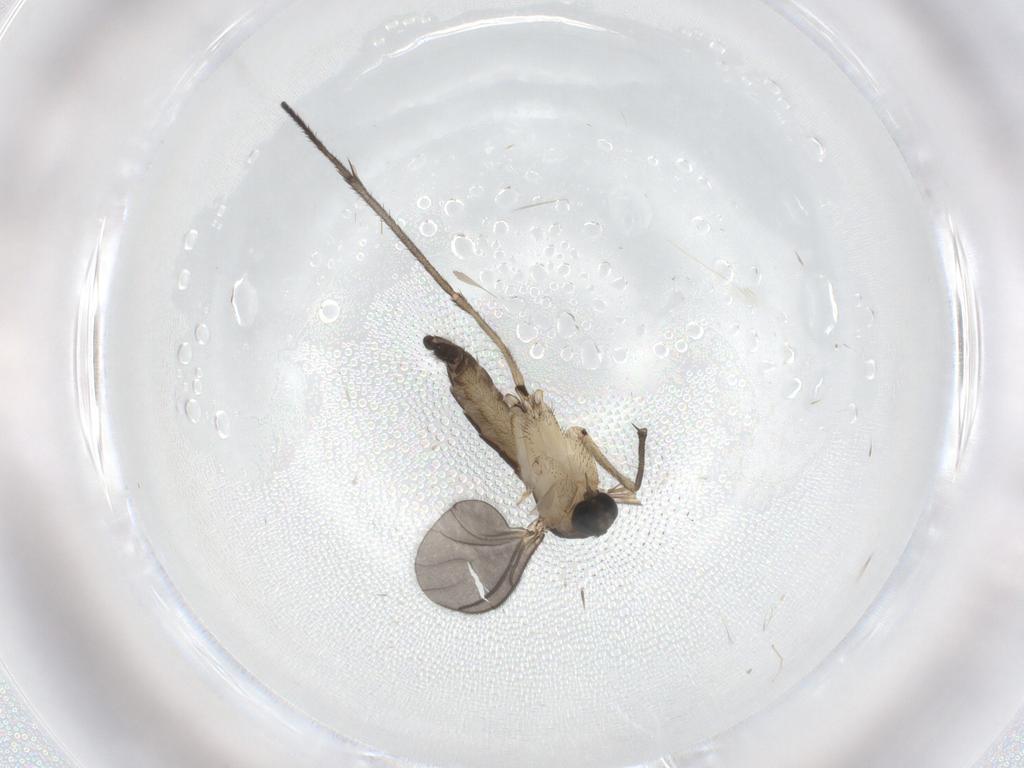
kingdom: Animalia
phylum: Arthropoda
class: Insecta
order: Diptera
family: Sciaridae
